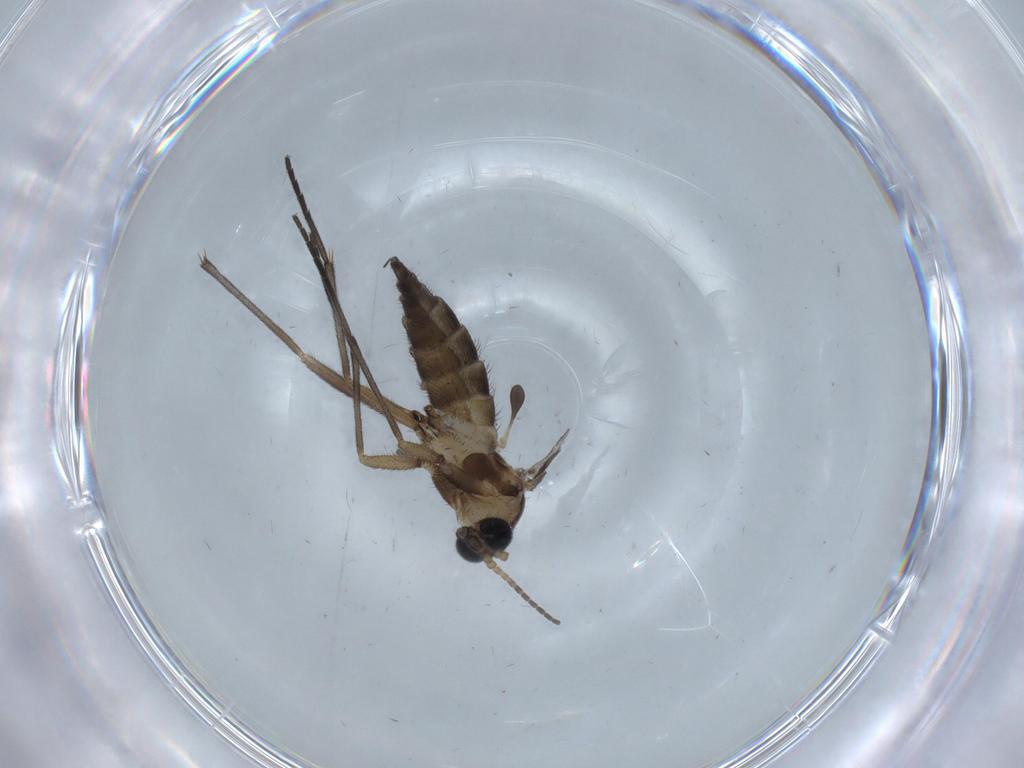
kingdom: Animalia
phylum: Arthropoda
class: Insecta
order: Diptera
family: Sciaridae
